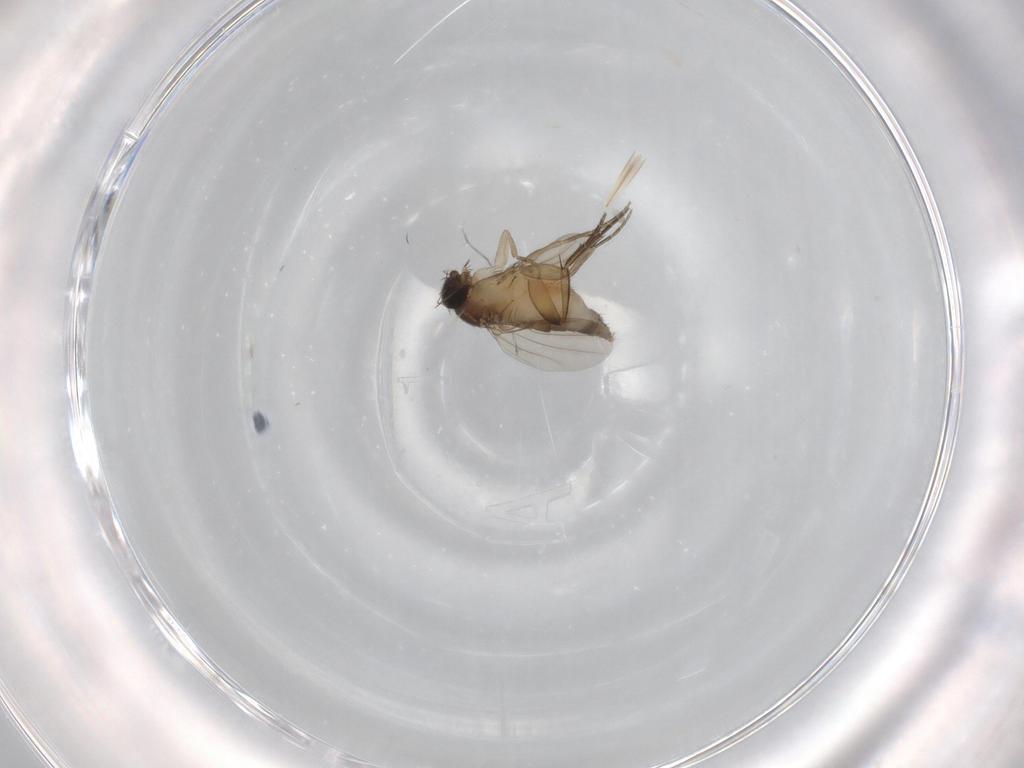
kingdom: Animalia
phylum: Arthropoda
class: Insecta
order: Diptera
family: Phoridae
